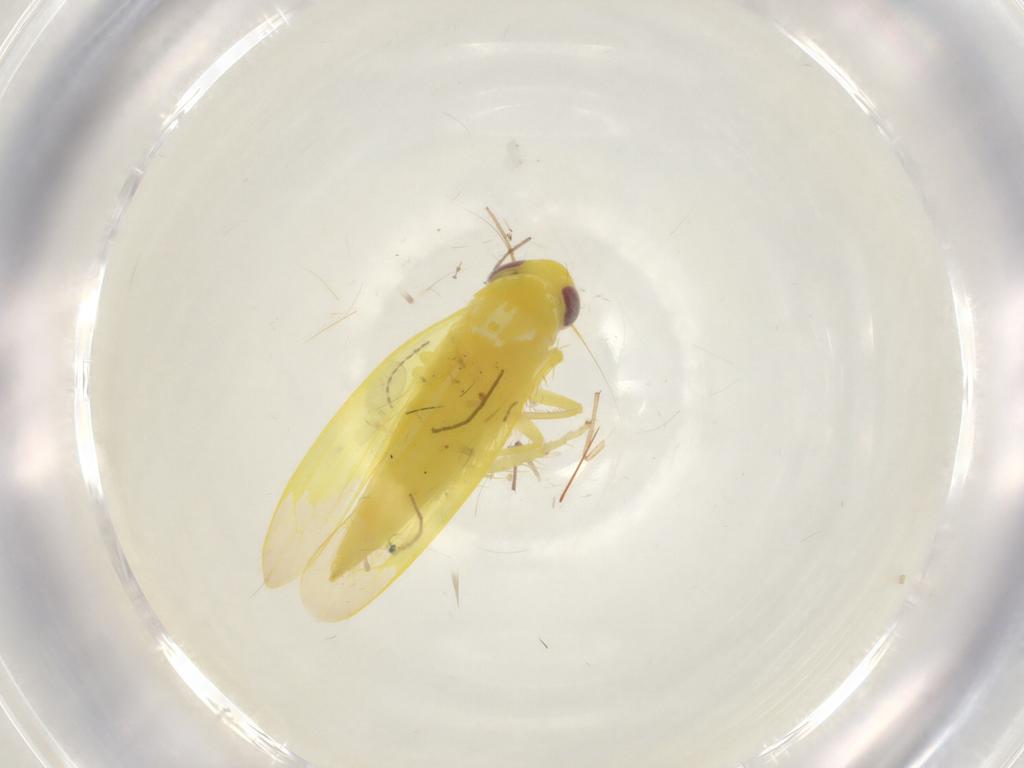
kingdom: Animalia
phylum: Arthropoda
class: Insecta
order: Hemiptera
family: Tingidae
